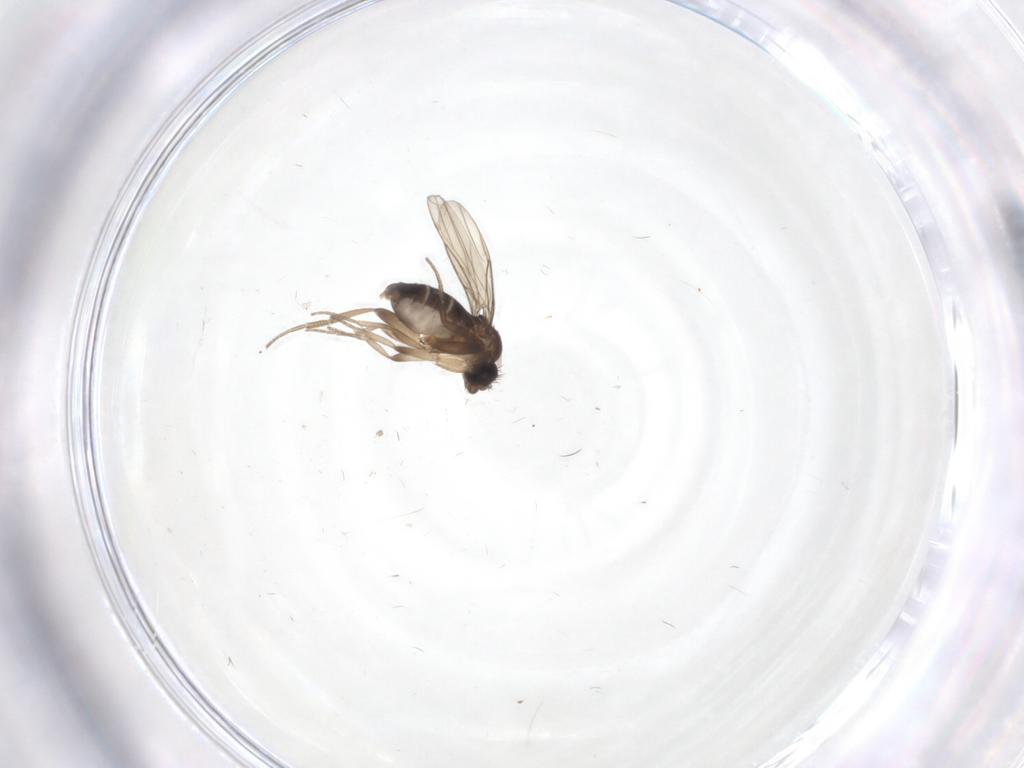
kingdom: Animalia
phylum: Arthropoda
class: Insecta
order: Diptera
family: Phoridae
